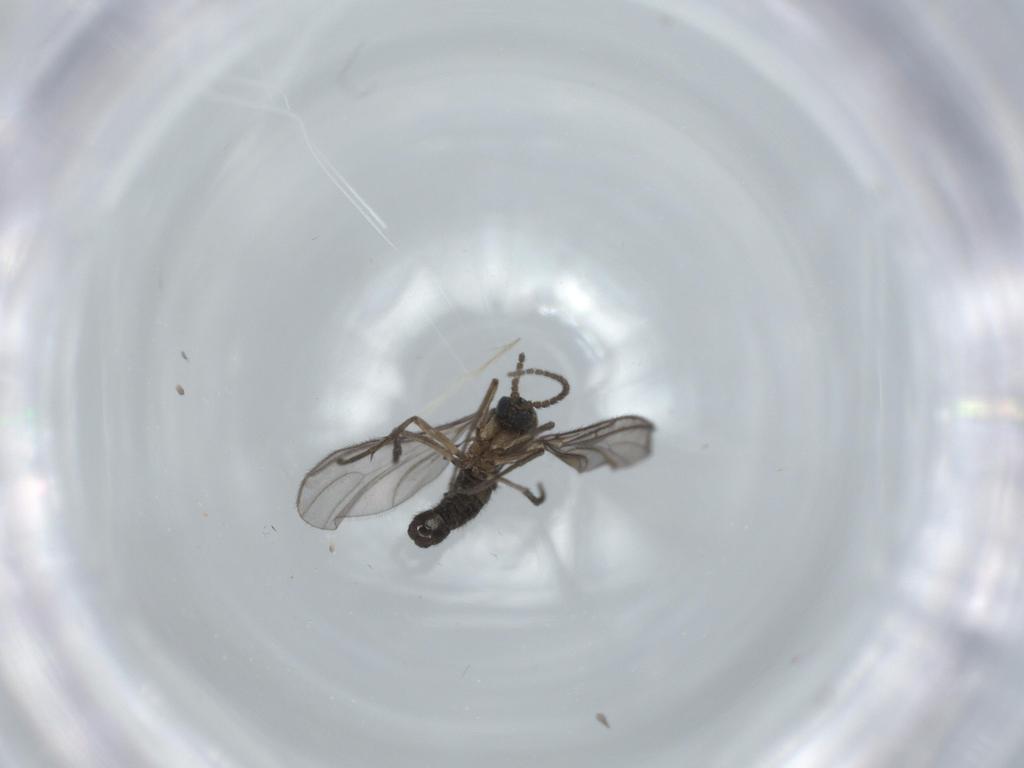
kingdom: Animalia
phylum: Arthropoda
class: Insecta
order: Diptera
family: Sciaridae
